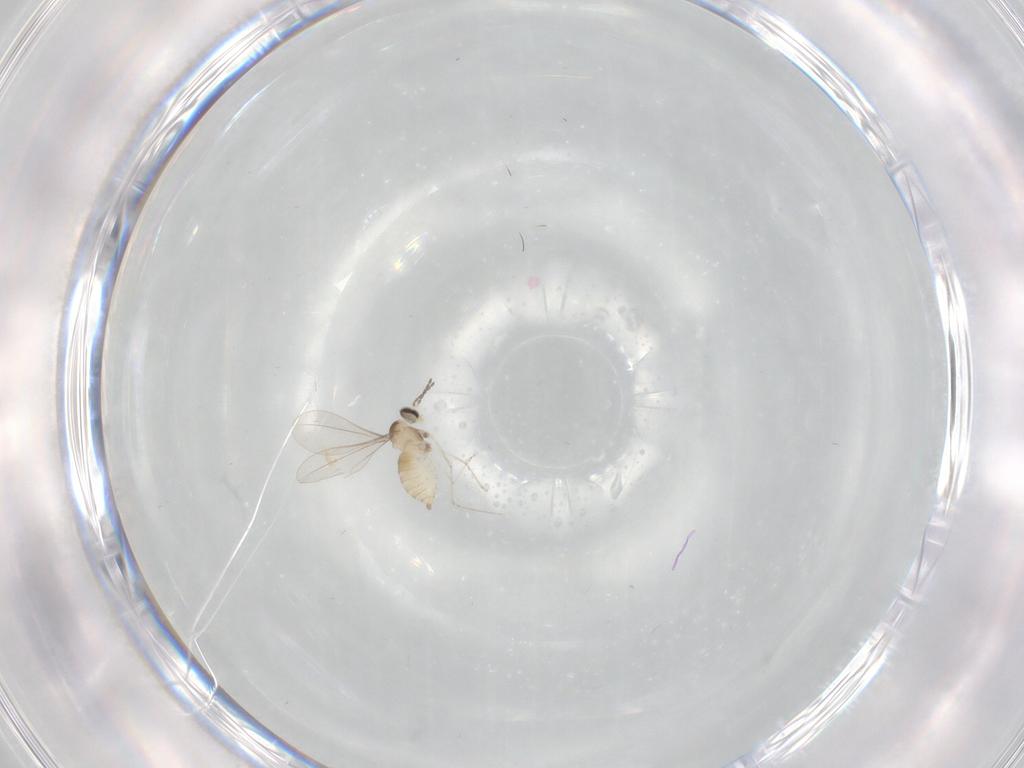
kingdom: Animalia
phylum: Arthropoda
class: Insecta
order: Diptera
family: Cecidomyiidae
